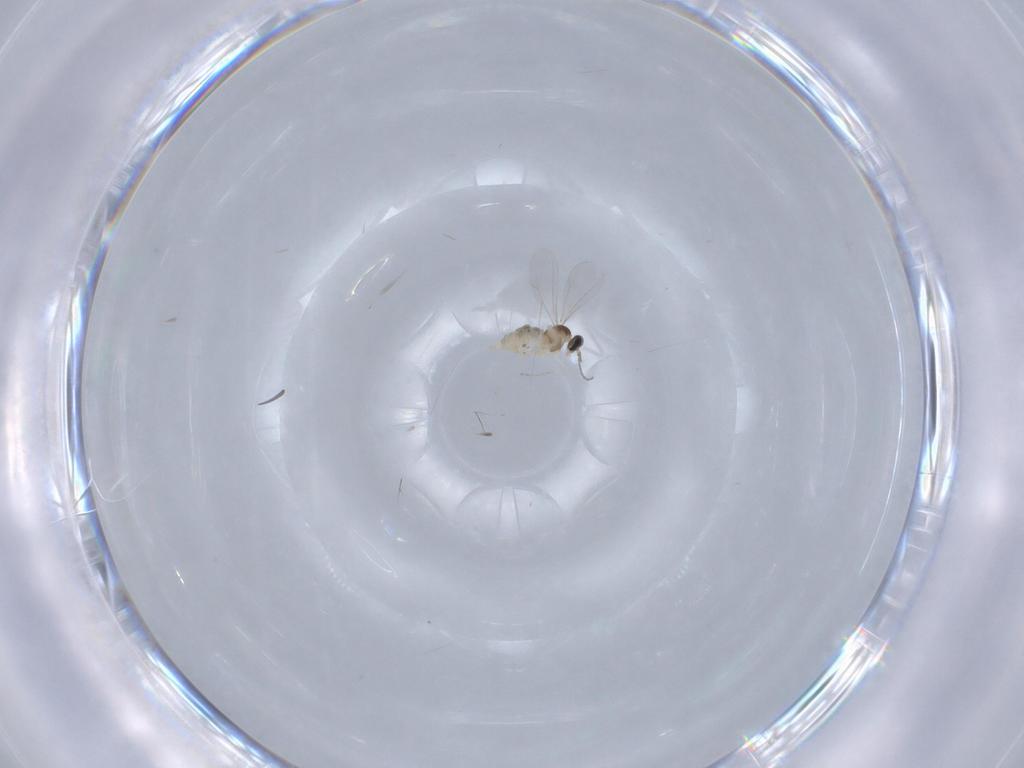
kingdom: Animalia
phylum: Arthropoda
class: Insecta
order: Diptera
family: Cecidomyiidae
